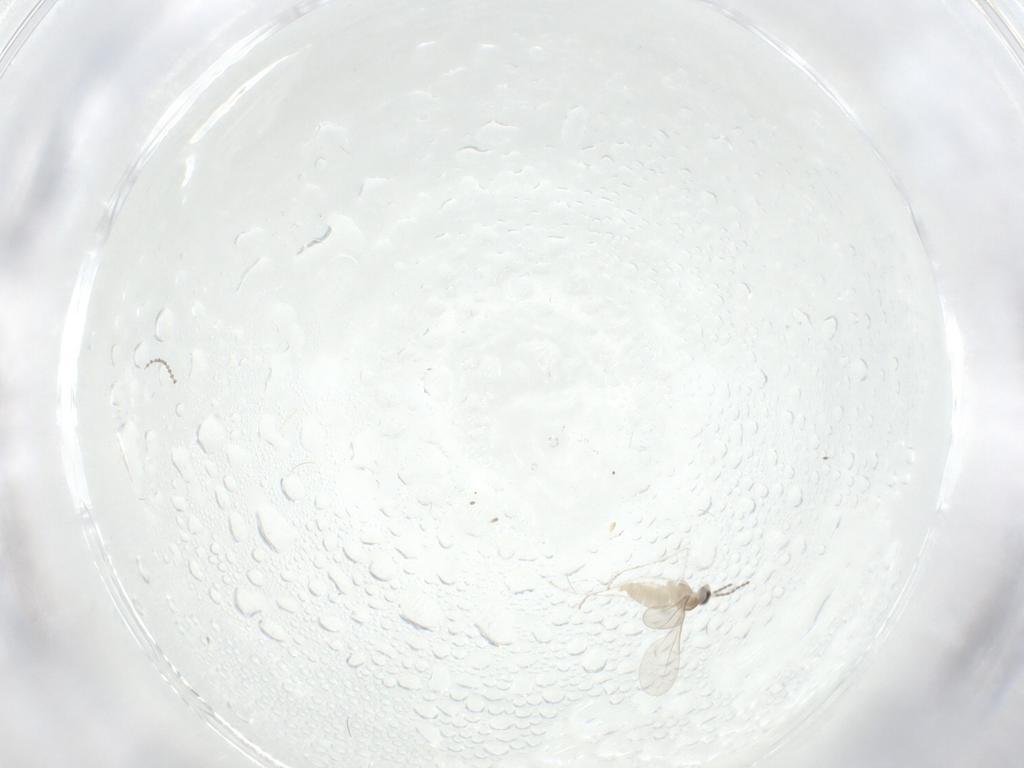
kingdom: Animalia
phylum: Arthropoda
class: Insecta
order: Diptera
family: Cecidomyiidae
